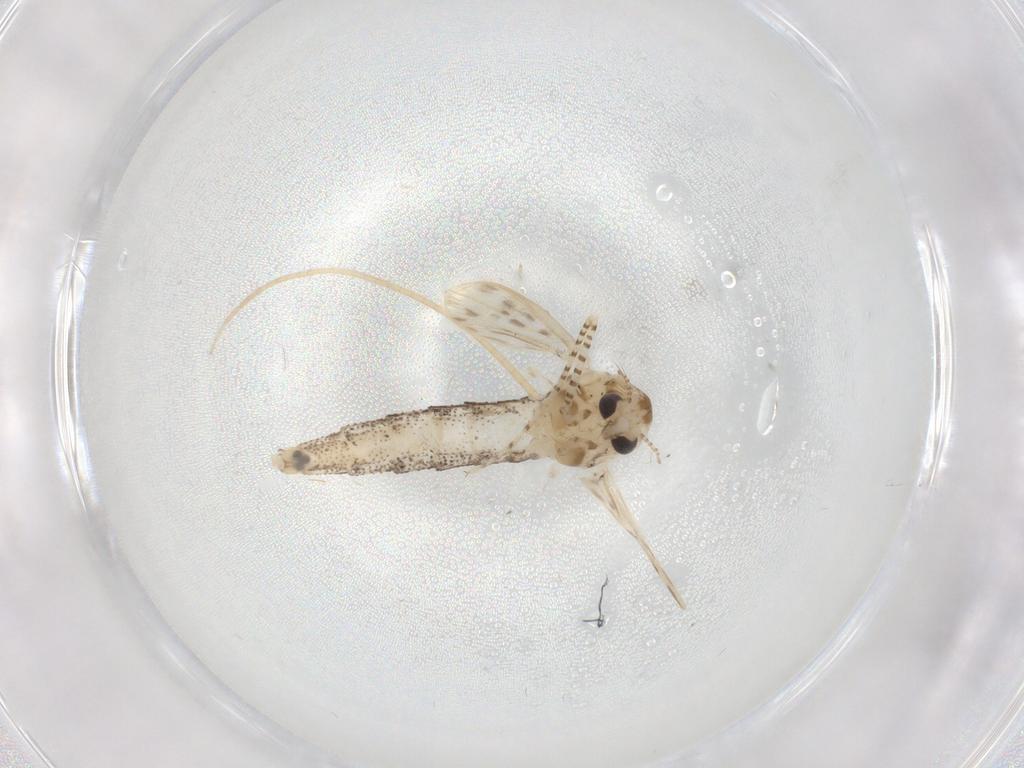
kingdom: Animalia
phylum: Arthropoda
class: Insecta
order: Diptera
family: Chaoboridae
